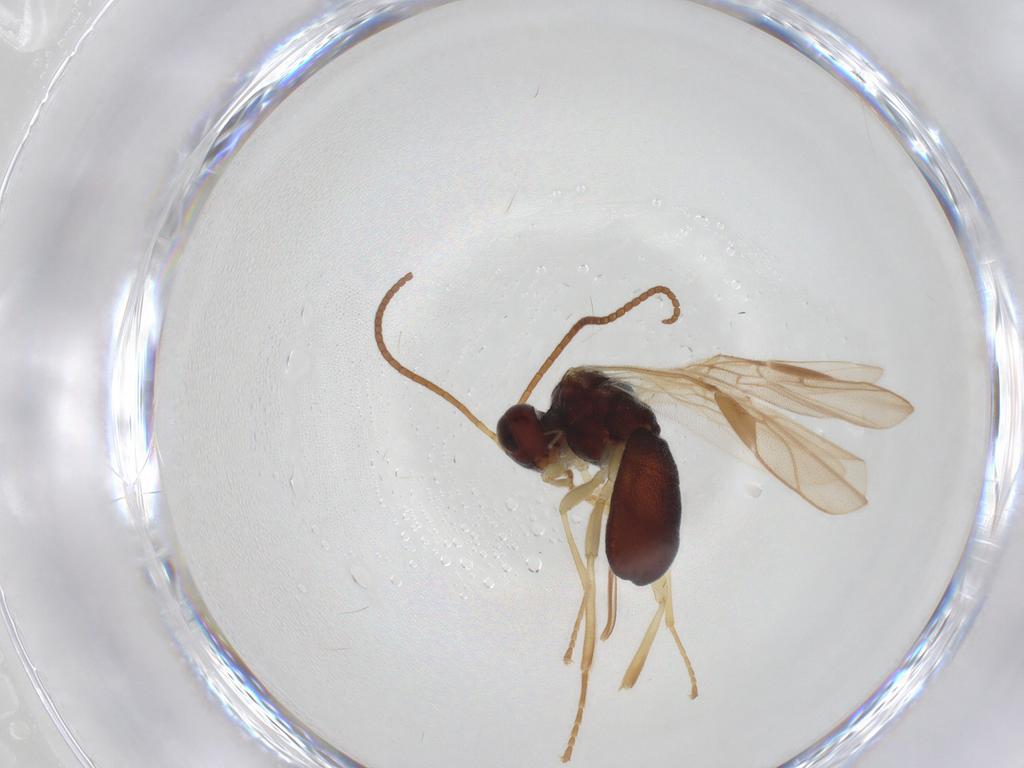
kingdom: Animalia
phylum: Arthropoda
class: Insecta
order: Hymenoptera
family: Braconidae
